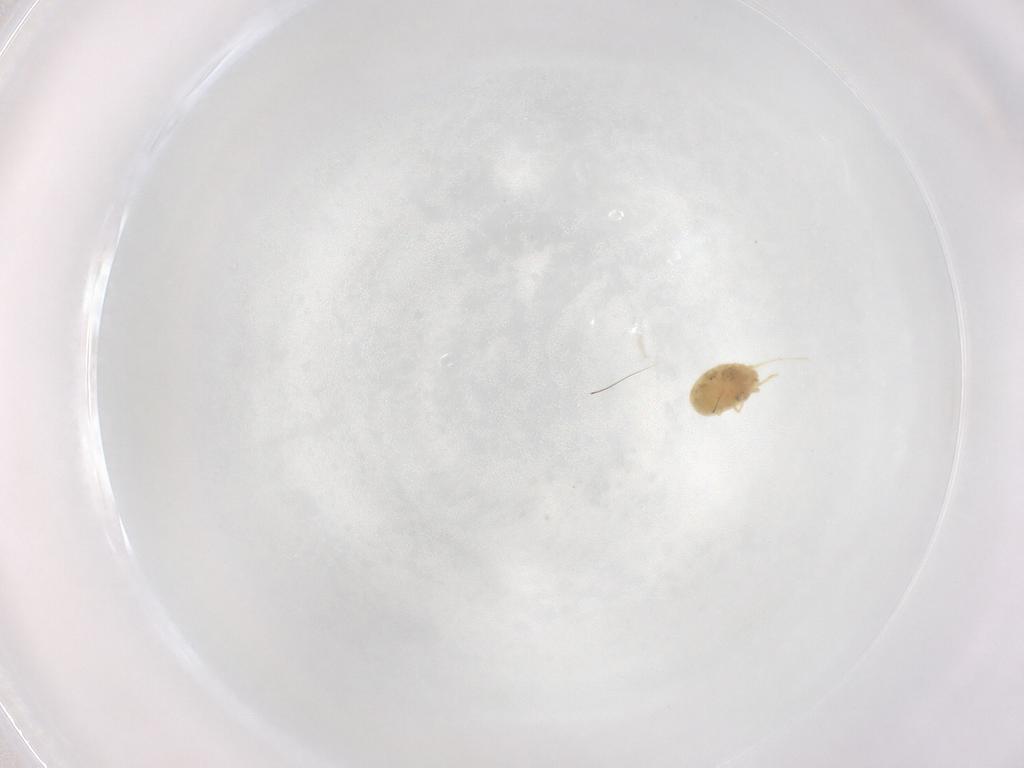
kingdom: Animalia
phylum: Arthropoda
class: Arachnida
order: Trombidiformes
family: Tetranychidae
